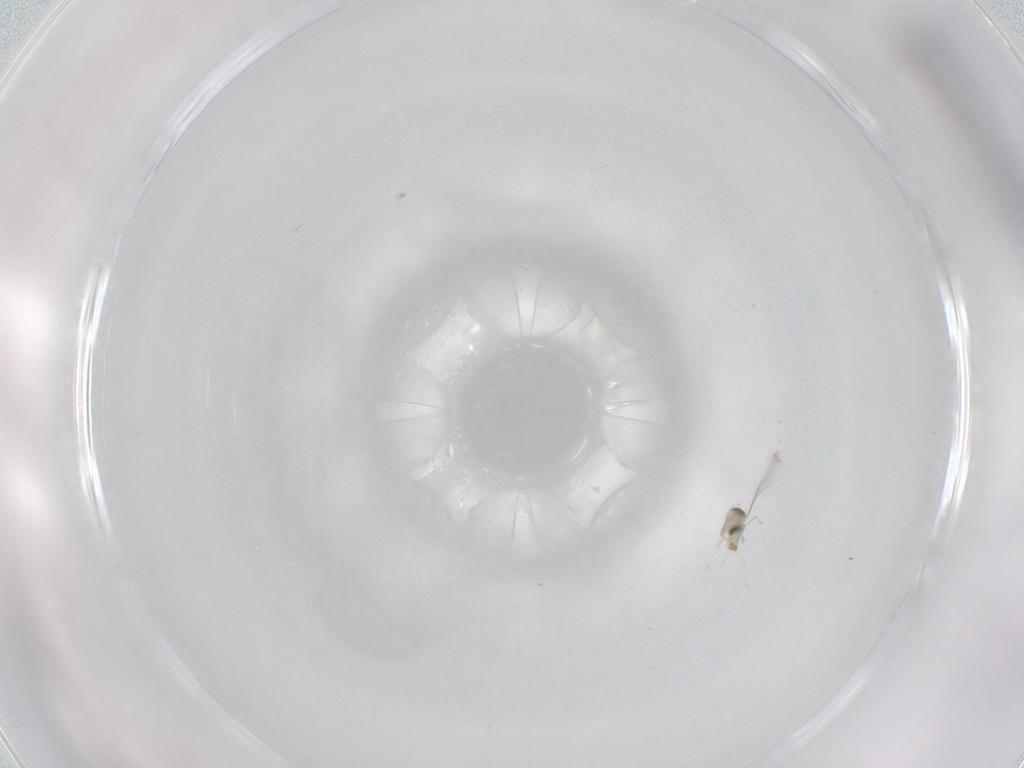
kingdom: Animalia
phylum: Arthropoda
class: Insecta
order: Diptera
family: Cecidomyiidae
